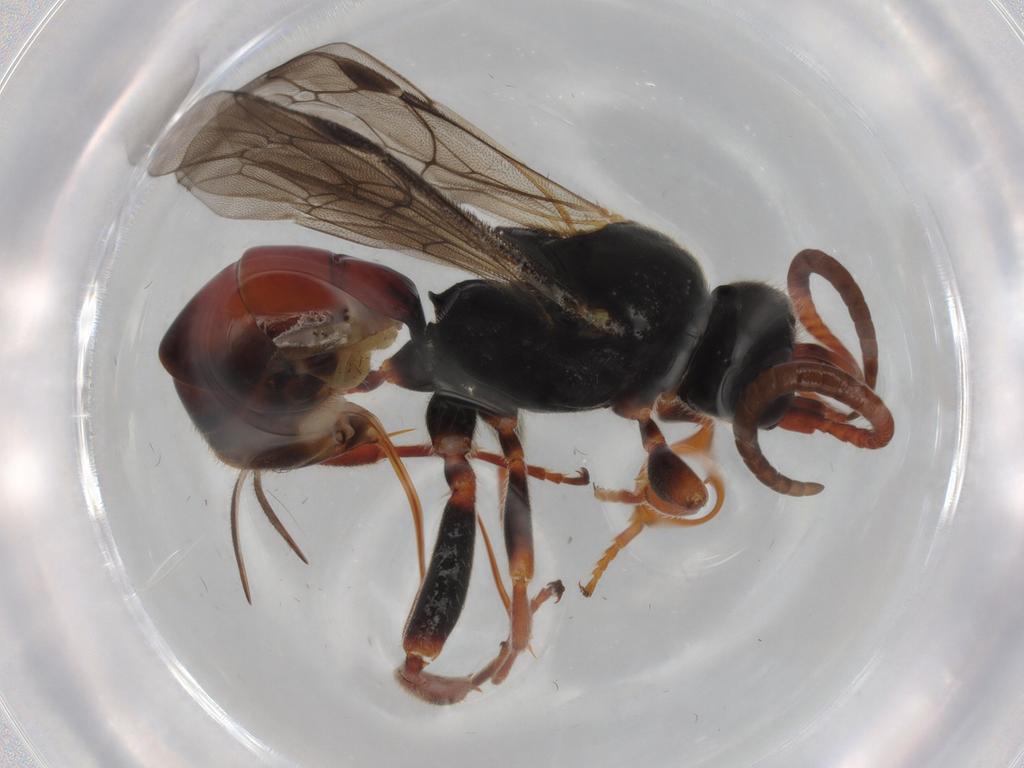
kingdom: Animalia
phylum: Arthropoda
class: Insecta
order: Hymenoptera
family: Ichneumonidae
